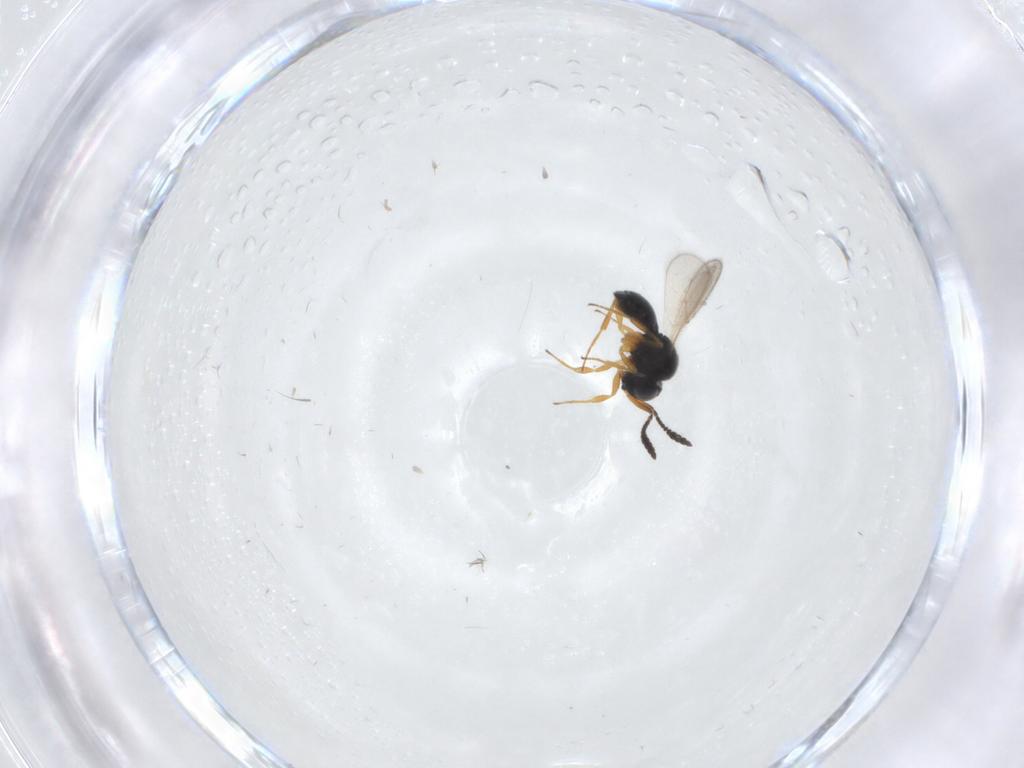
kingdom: Animalia
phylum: Arthropoda
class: Insecta
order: Hymenoptera
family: Scelionidae
